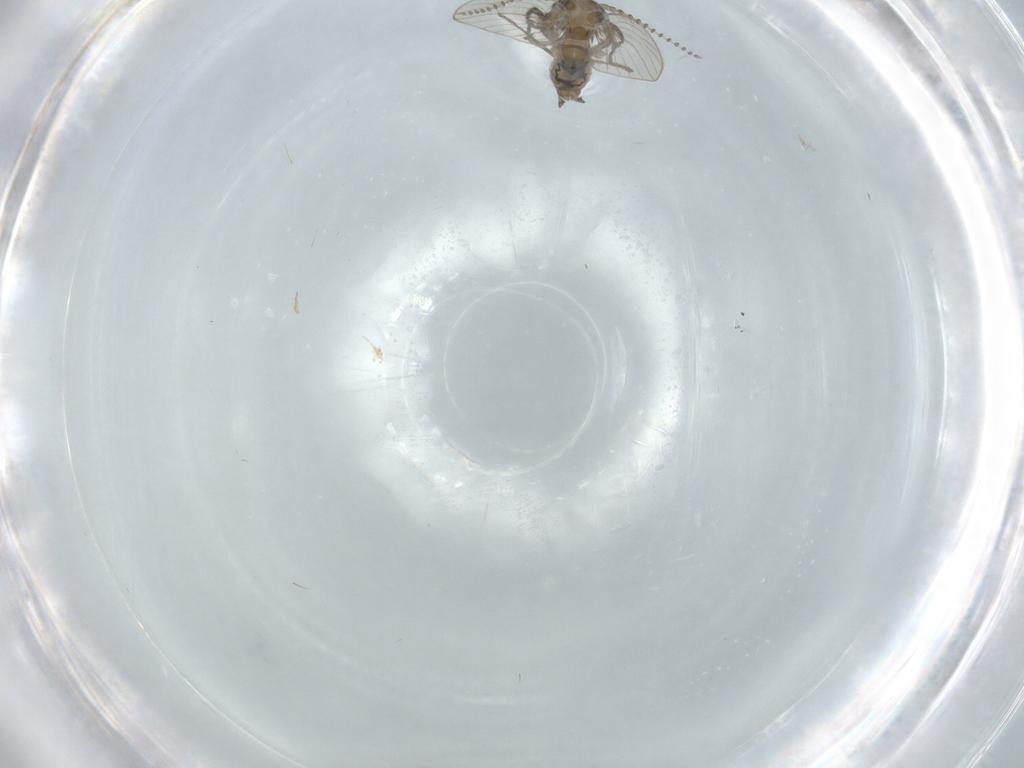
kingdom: Animalia
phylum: Arthropoda
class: Insecta
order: Diptera
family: Psychodidae
